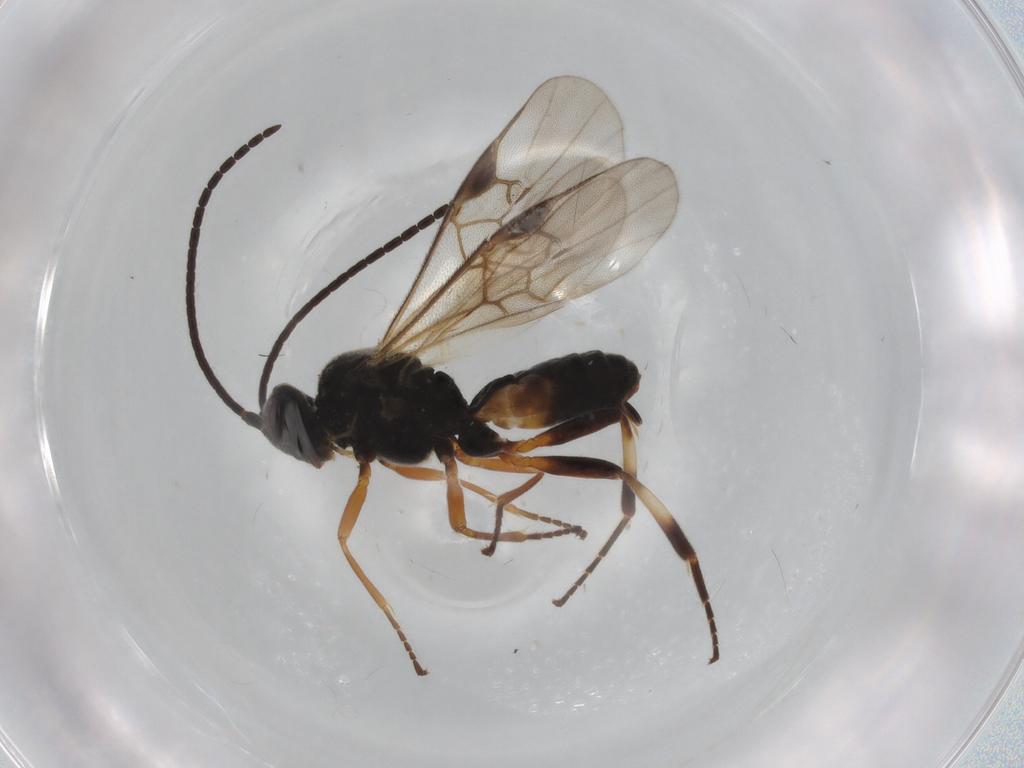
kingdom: Animalia
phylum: Arthropoda
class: Insecta
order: Hymenoptera
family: Braconidae
